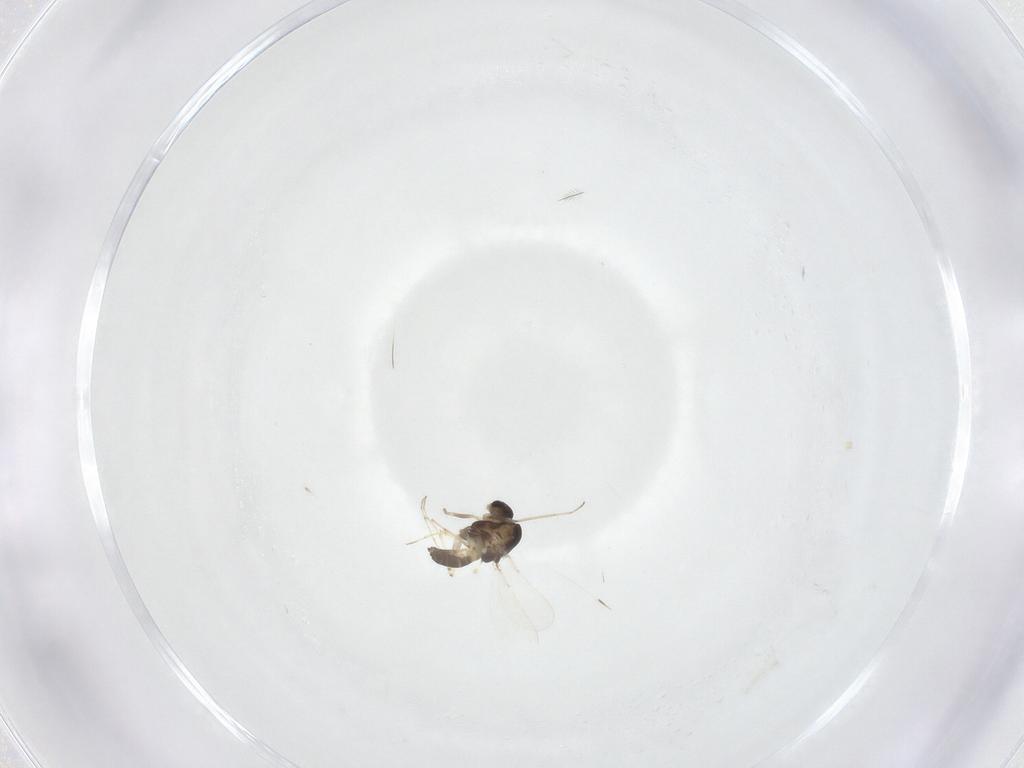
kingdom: Animalia
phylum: Arthropoda
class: Insecta
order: Diptera
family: Chironomidae
